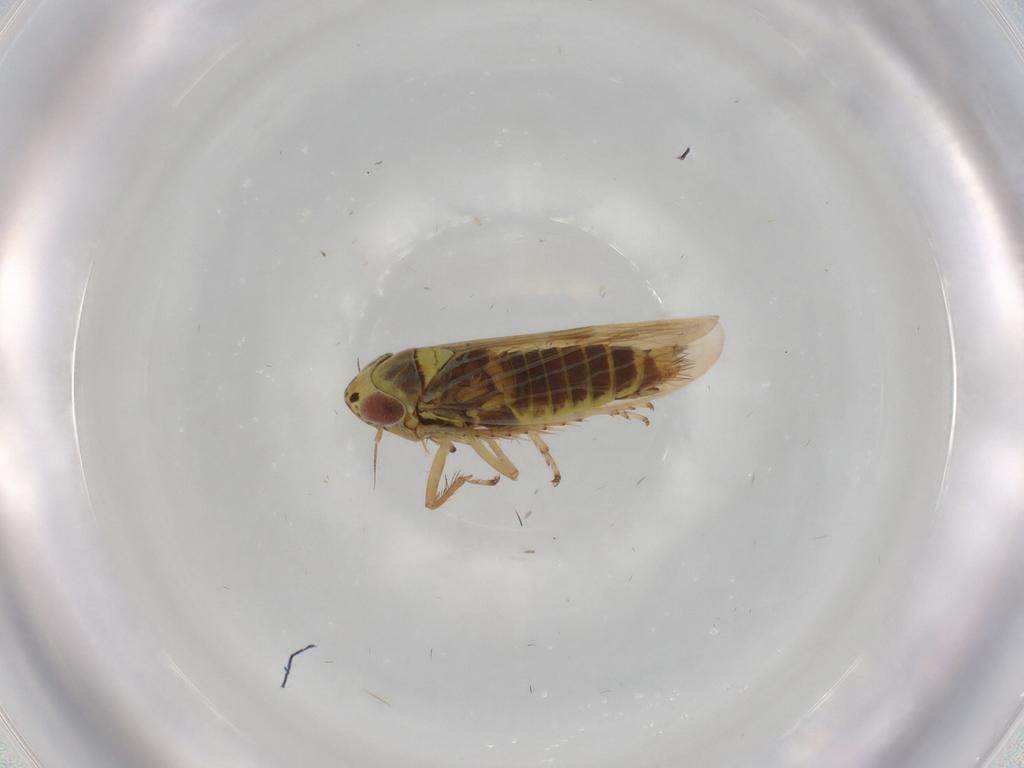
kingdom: Animalia
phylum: Arthropoda
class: Insecta
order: Hemiptera
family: Cicadellidae
